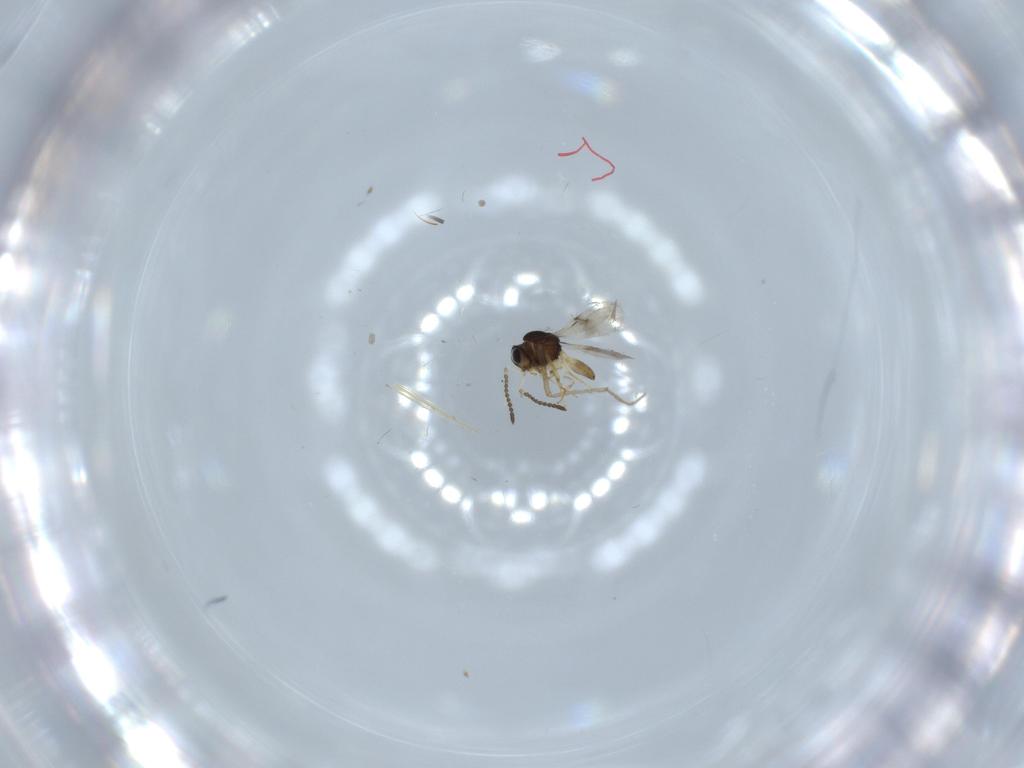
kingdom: Animalia
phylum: Arthropoda
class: Insecta
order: Hymenoptera
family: Scelionidae
